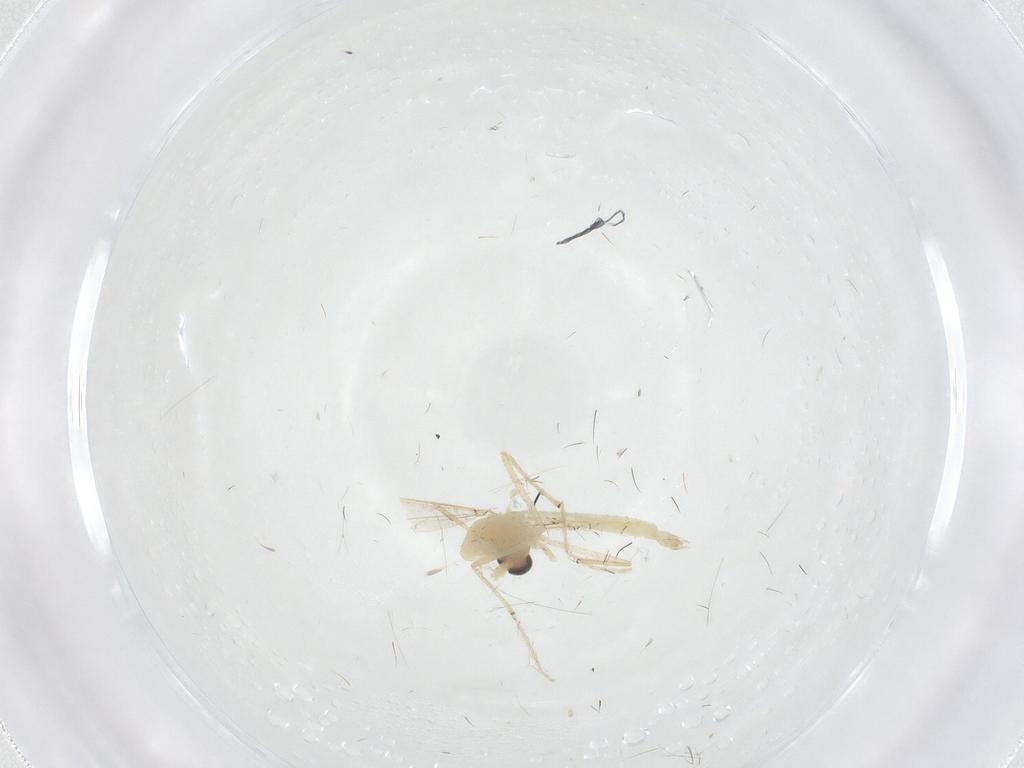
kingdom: Animalia
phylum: Arthropoda
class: Insecta
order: Diptera
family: Chironomidae
